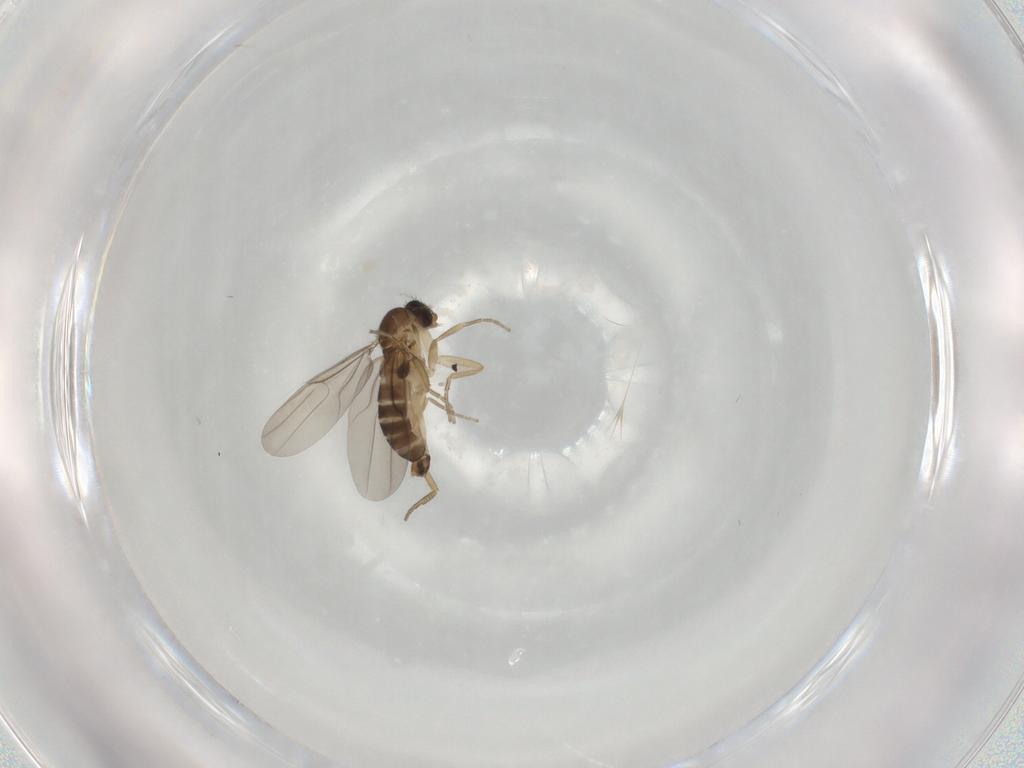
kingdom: Animalia
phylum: Arthropoda
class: Insecta
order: Diptera
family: Phoridae
